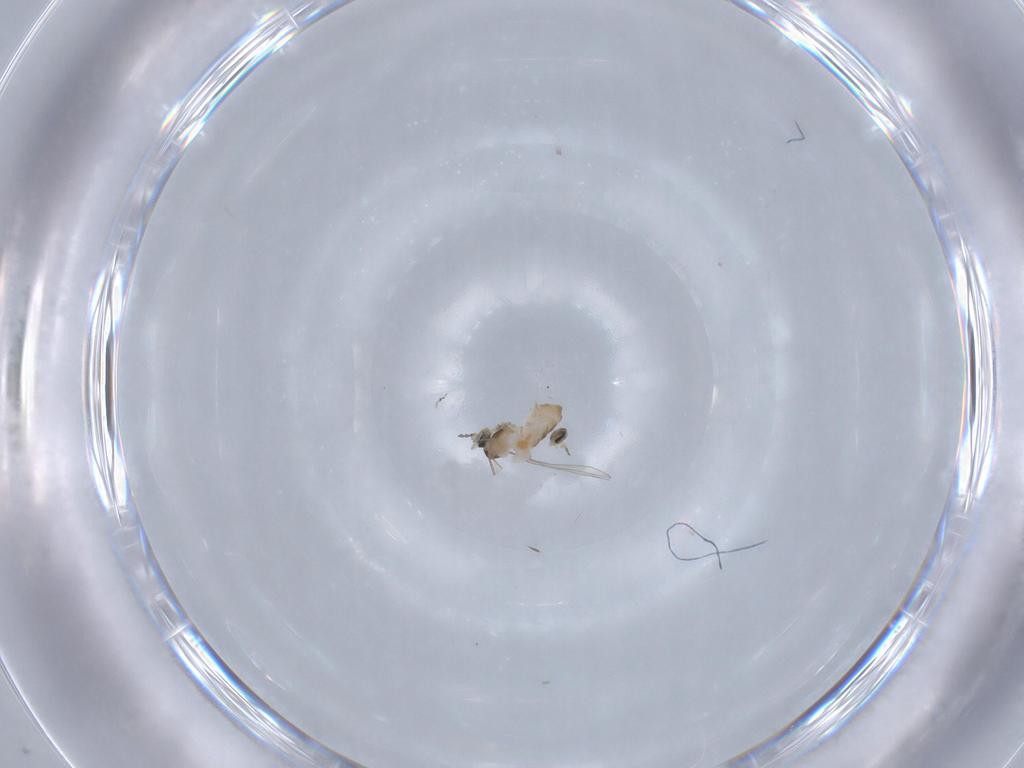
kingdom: Animalia
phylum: Arthropoda
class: Insecta
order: Diptera
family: Cecidomyiidae
